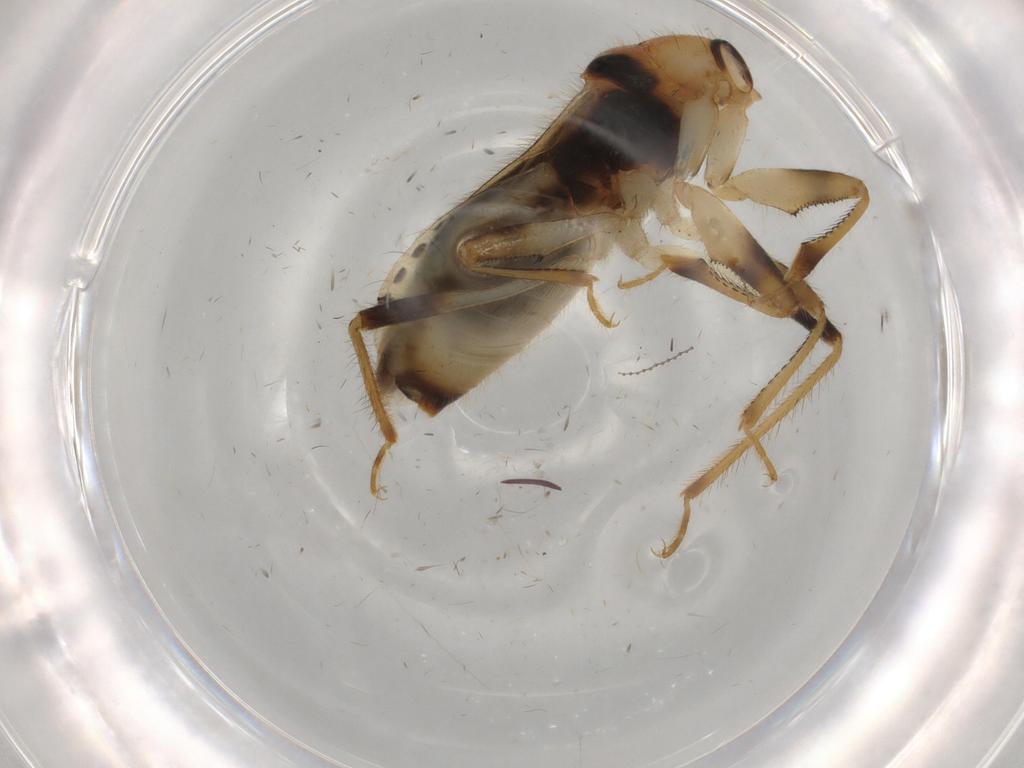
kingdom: Animalia
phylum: Arthropoda
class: Insecta
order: Hemiptera
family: Nabidae
